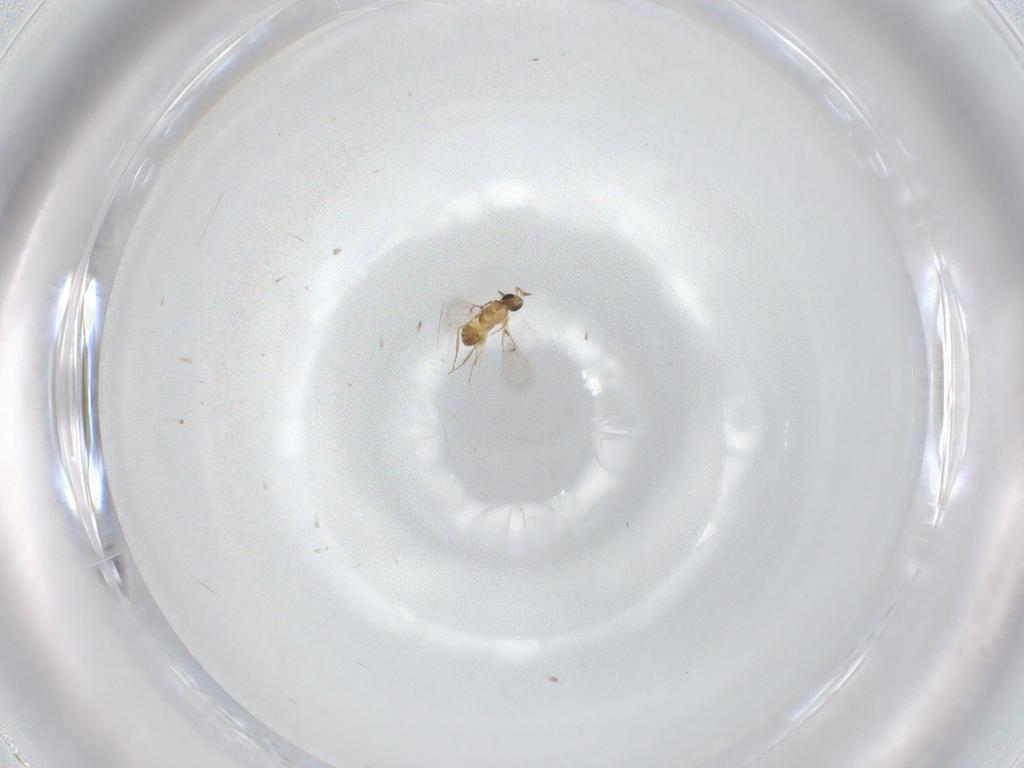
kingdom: Animalia
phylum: Arthropoda
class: Insecta
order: Hymenoptera
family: Trichogrammatidae
